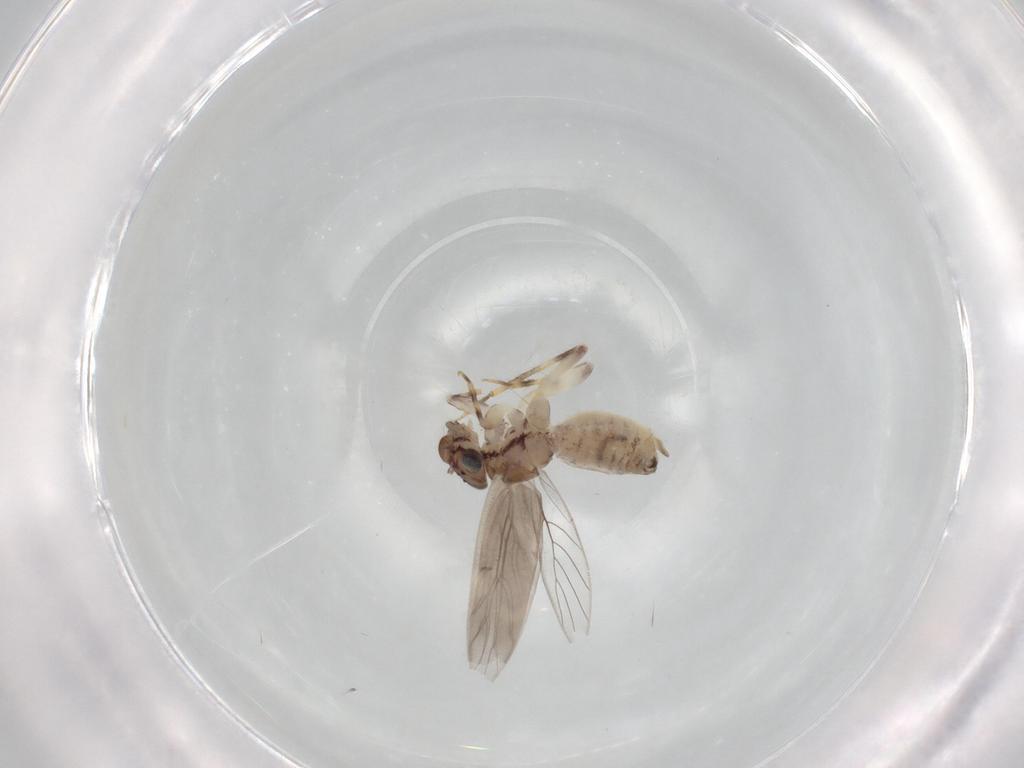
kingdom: Animalia
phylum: Arthropoda
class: Insecta
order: Psocodea
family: Lepidopsocidae
